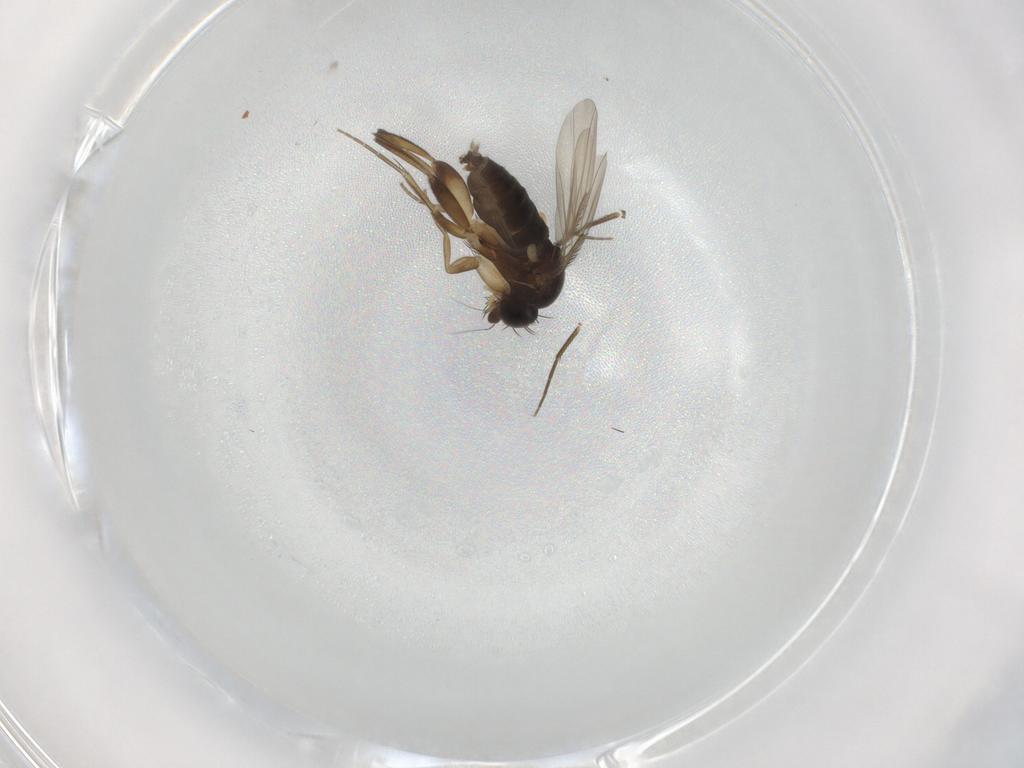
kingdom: Animalia
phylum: Arthropoda
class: Insecta
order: Diptera
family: Phoridae
